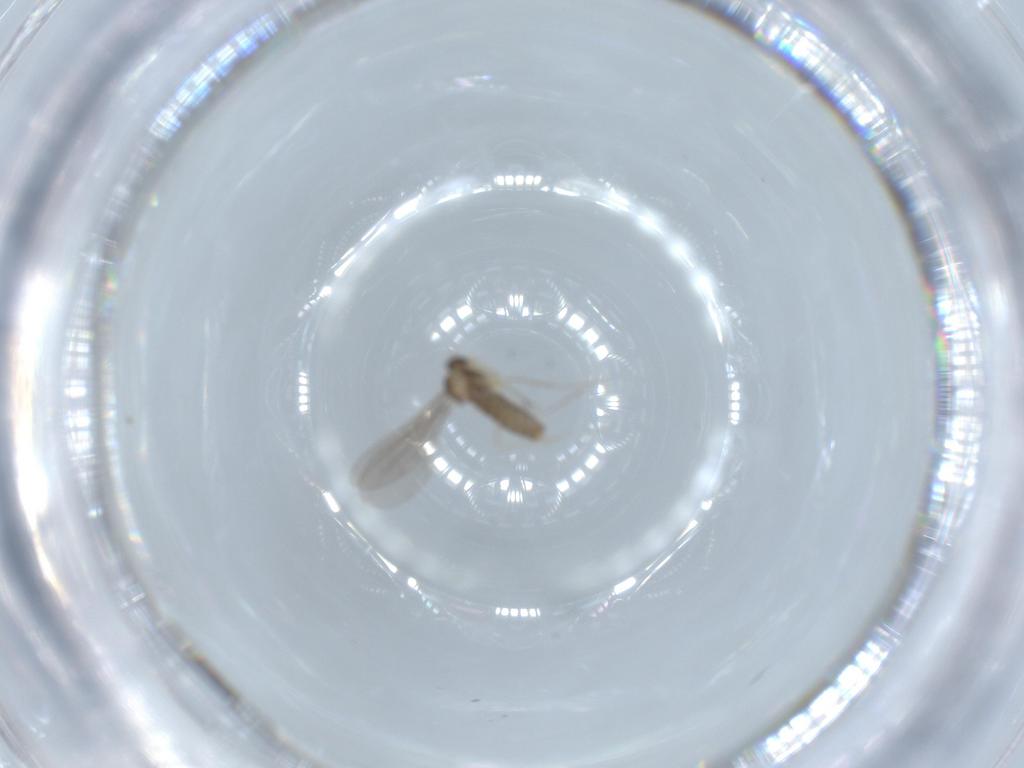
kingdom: Animalia
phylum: Arthropoda
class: Insecta
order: Diptera
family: Cecidomyiidae
